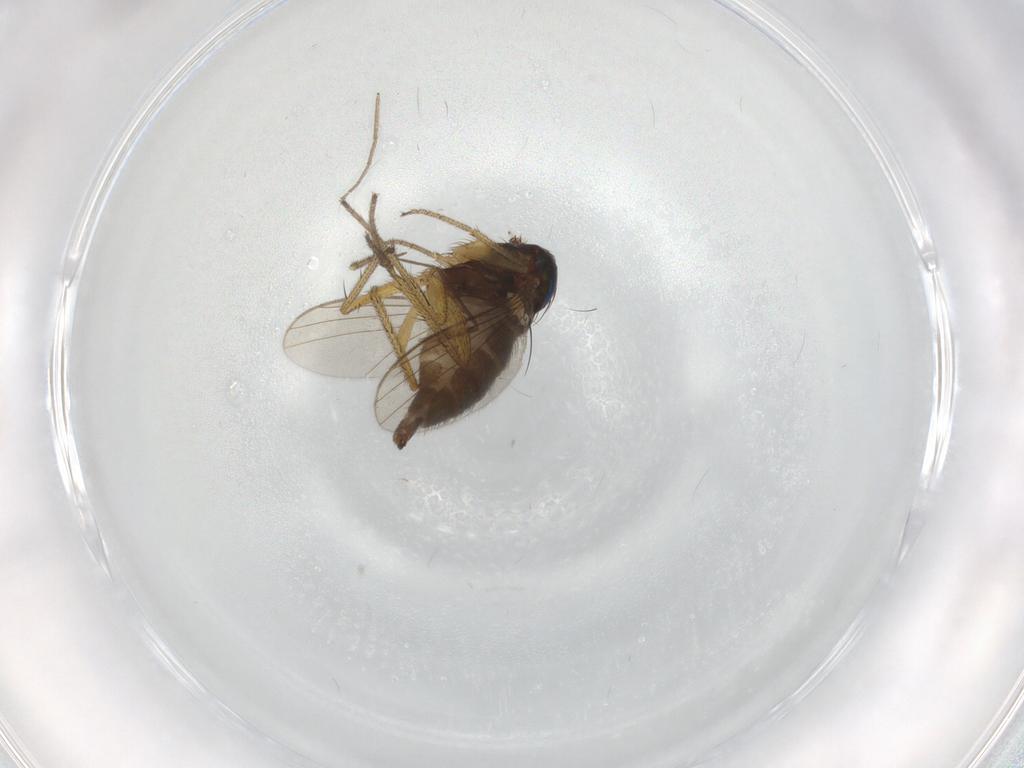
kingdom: Animalia
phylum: Arthropoda
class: Insecta
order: Diptera
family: Dolichopodidae
